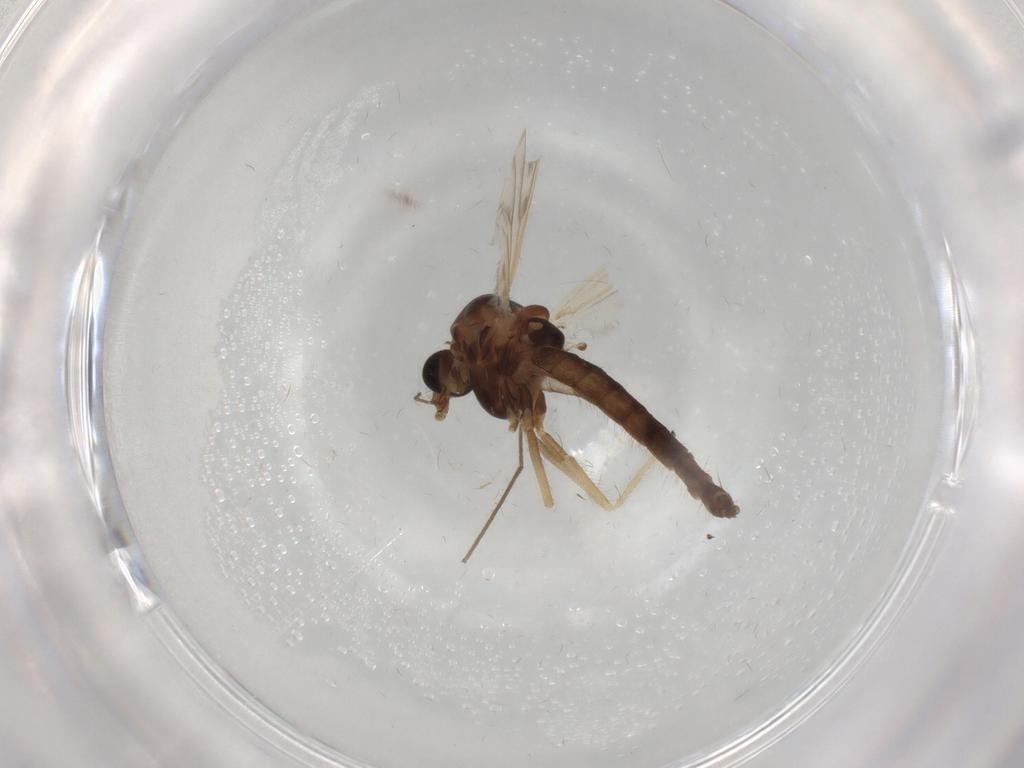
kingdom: Animalia
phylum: Arthropoda
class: Insecta
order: Diptera
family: Chironomidae
